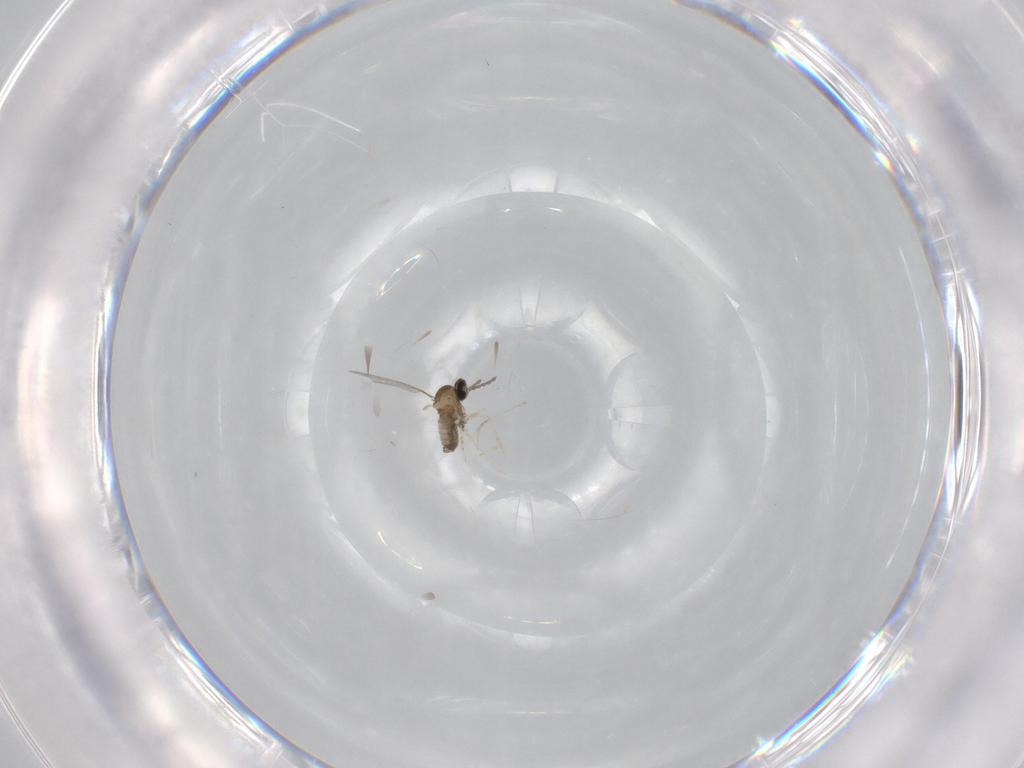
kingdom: Animalia
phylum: Arthropoda
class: Insecta
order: Diptera
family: Cecidomyiidae
